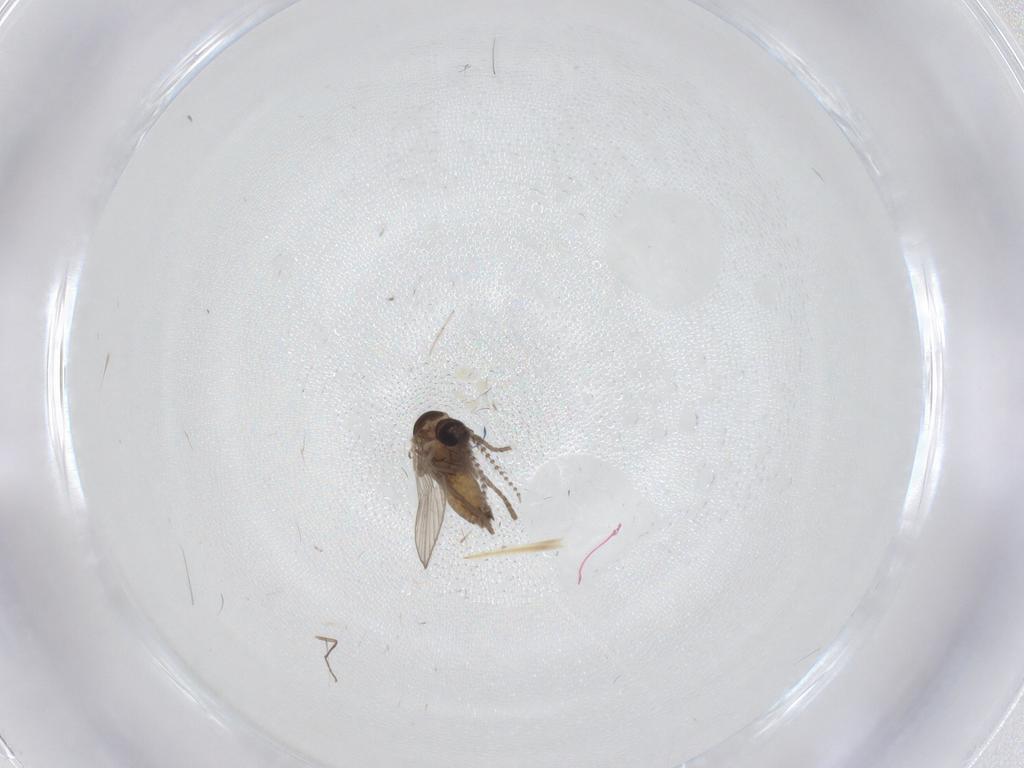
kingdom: Animalia
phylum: Arthropoda
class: Insecta
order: Diptera
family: Psychodidae
